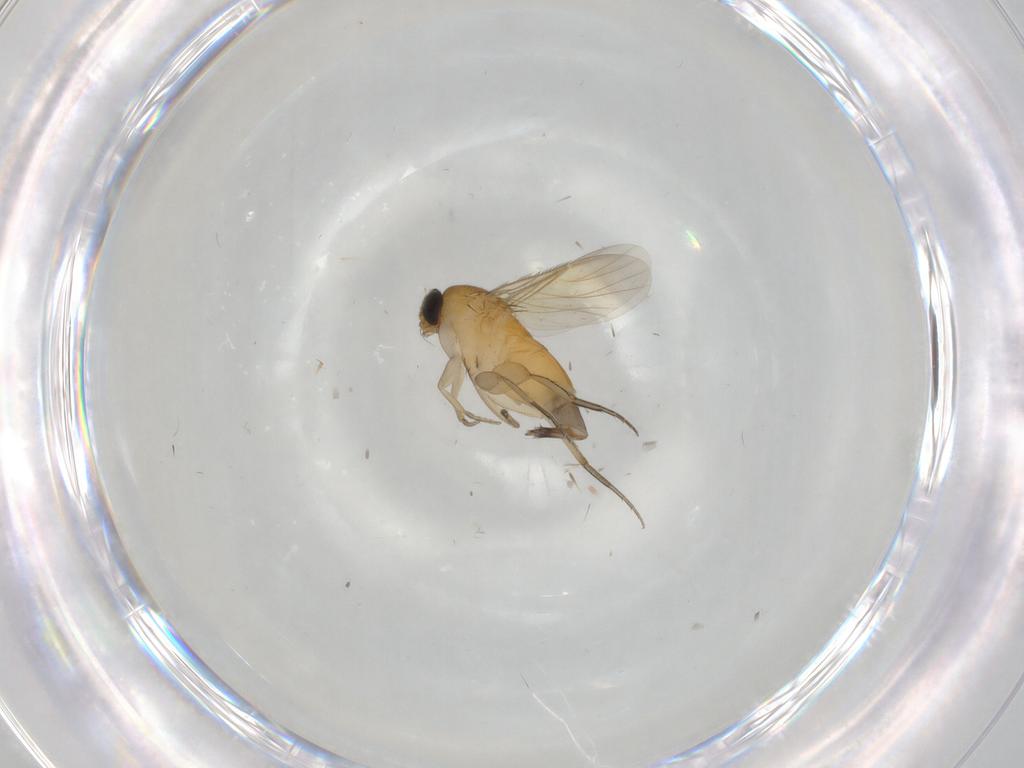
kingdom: Animalia
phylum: Arthropoda
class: Insecta
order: Diptera
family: Phoridae
